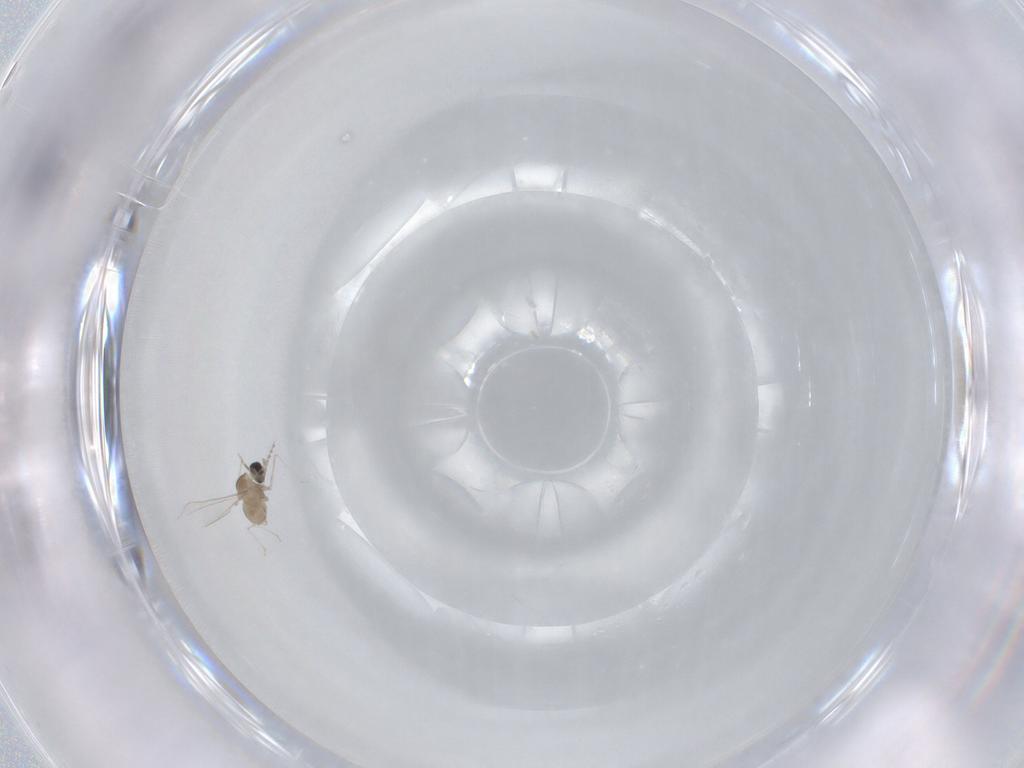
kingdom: Animalia
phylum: Arthropoda
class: Insecta
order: Diptera
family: Cecidomyiidae
